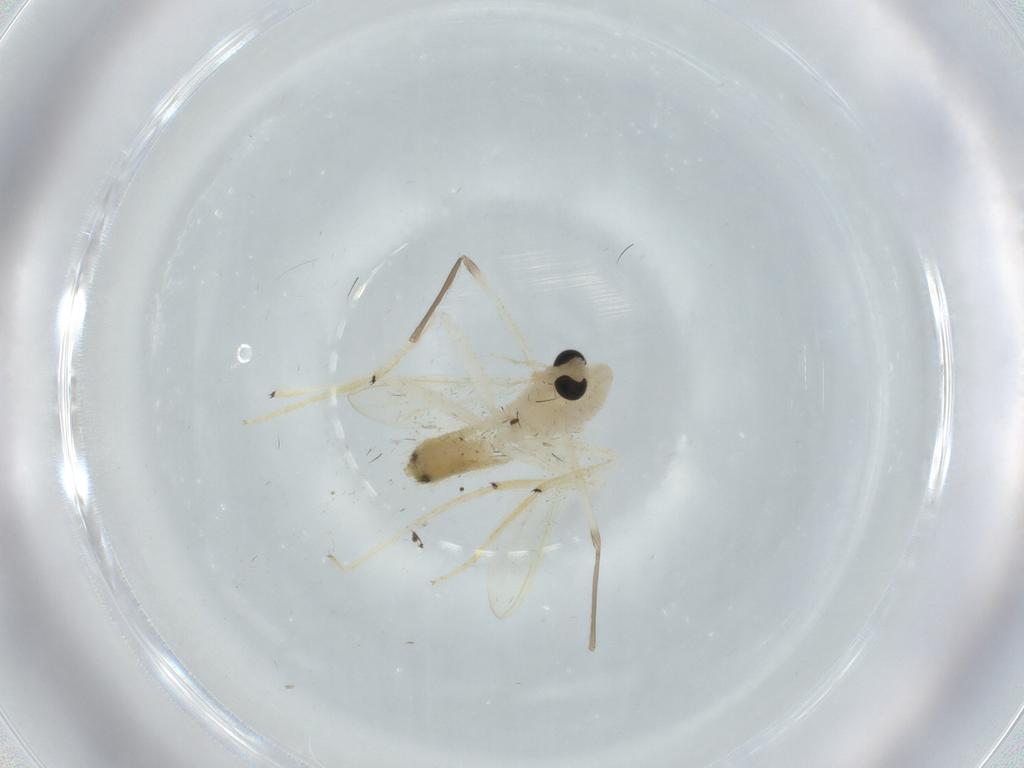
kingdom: Animalia
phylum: Arthropoda
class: Insecta
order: Diptera
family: Chironomidae
